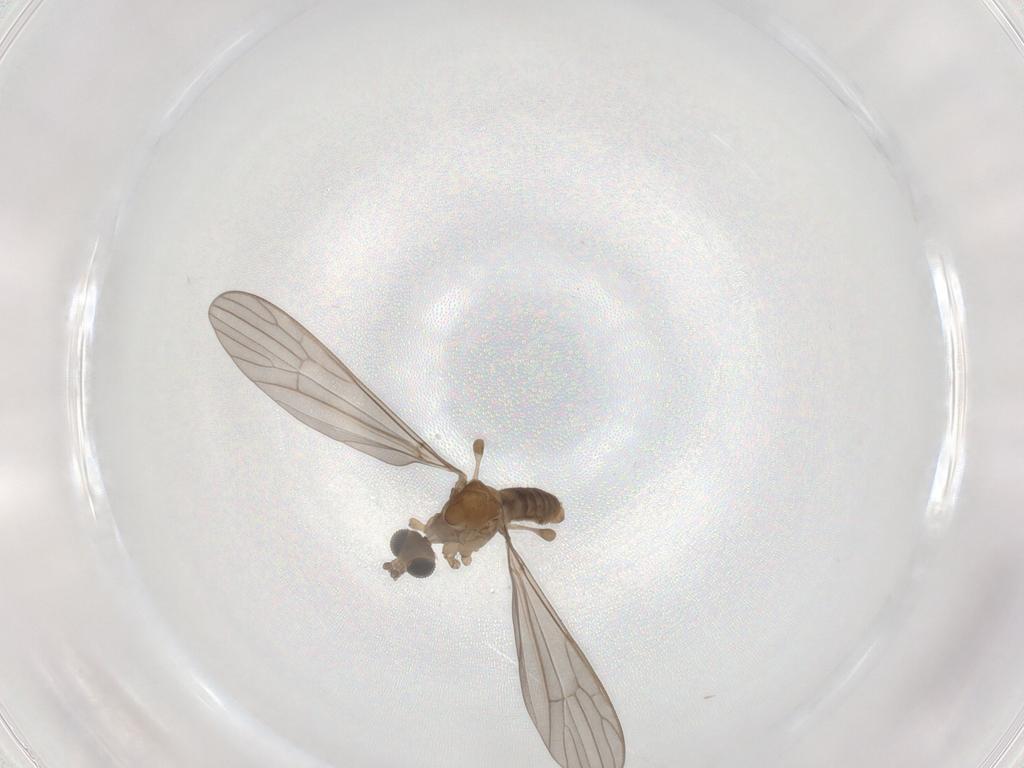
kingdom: Animalia
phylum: Arthropoda
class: Insecta
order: Diptera
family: Limoniidae
